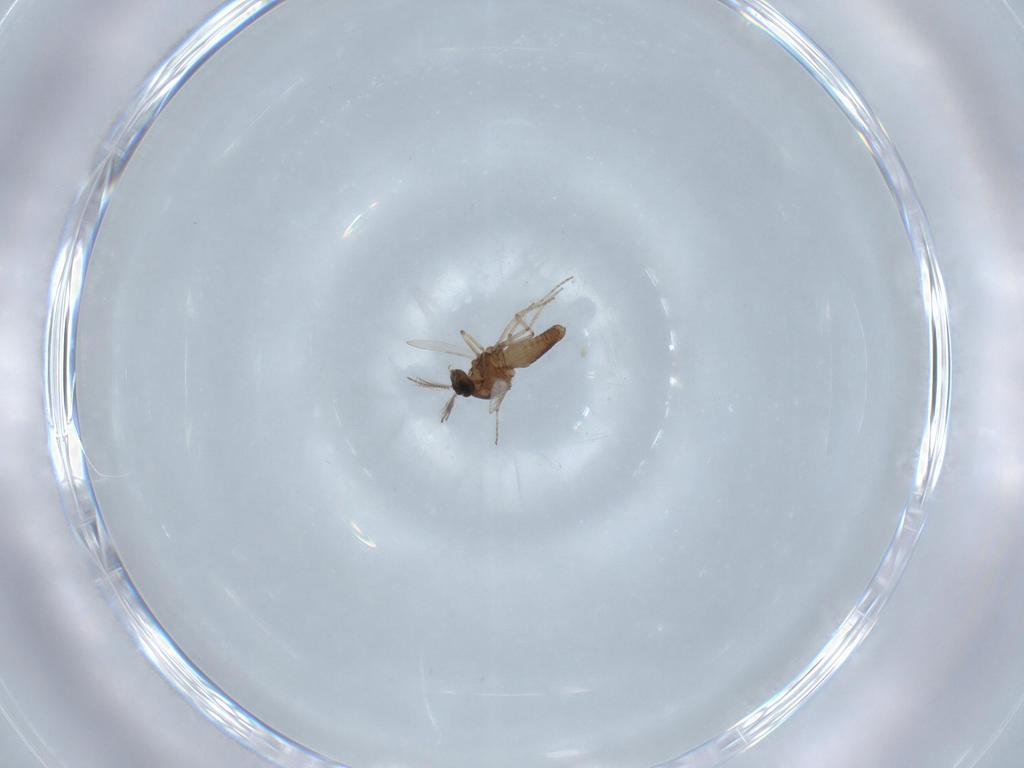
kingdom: Animalia
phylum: Arthropoda
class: Insecta
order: Diptera
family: Ceratopogonidae
